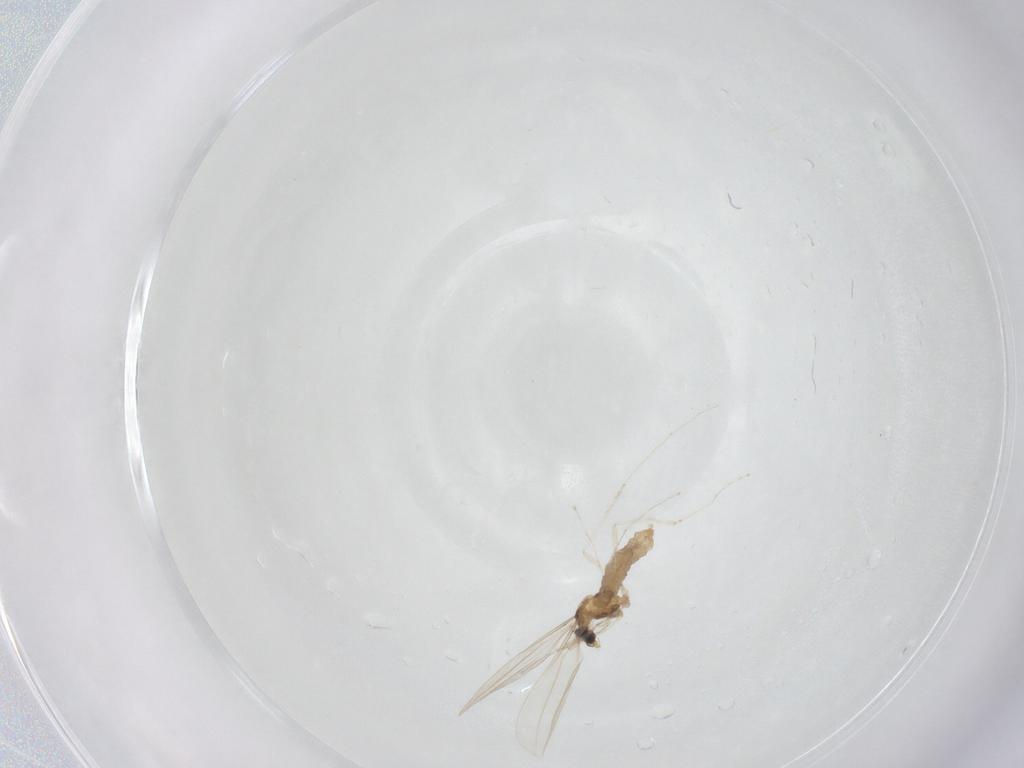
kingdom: Animalia
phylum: Arthropoda
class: Insecta
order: Diptera
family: Cecidomyiidae
